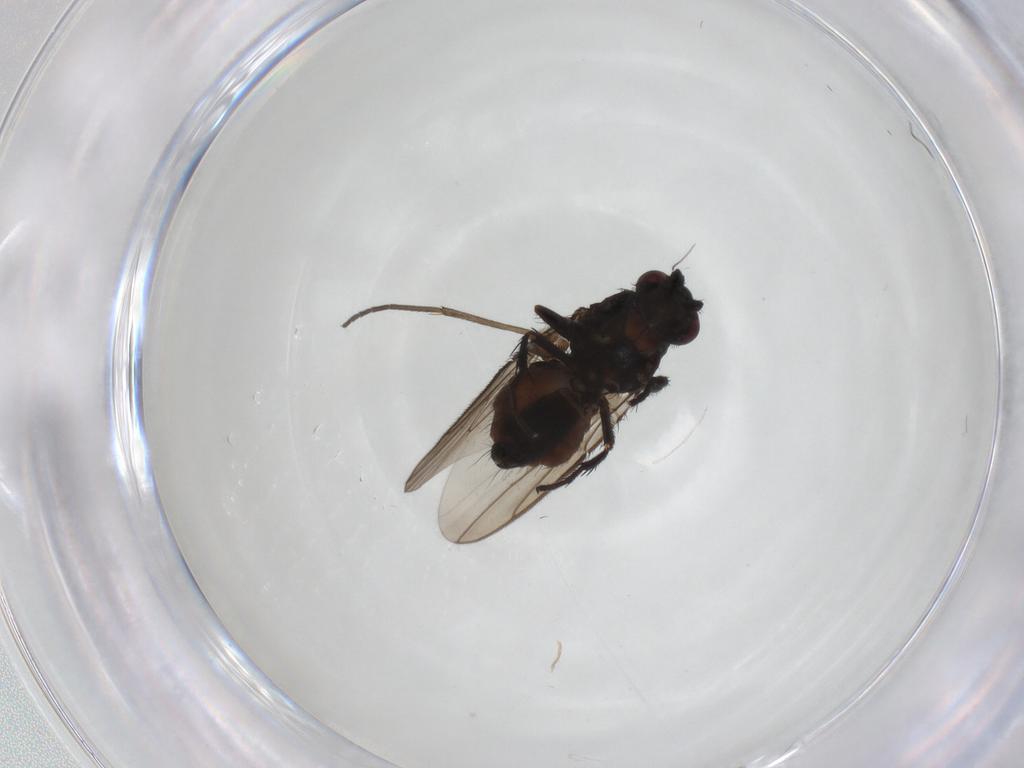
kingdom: Animalia
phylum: Arthropoda
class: Insecta
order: Diptera
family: Sphaeroceridae
